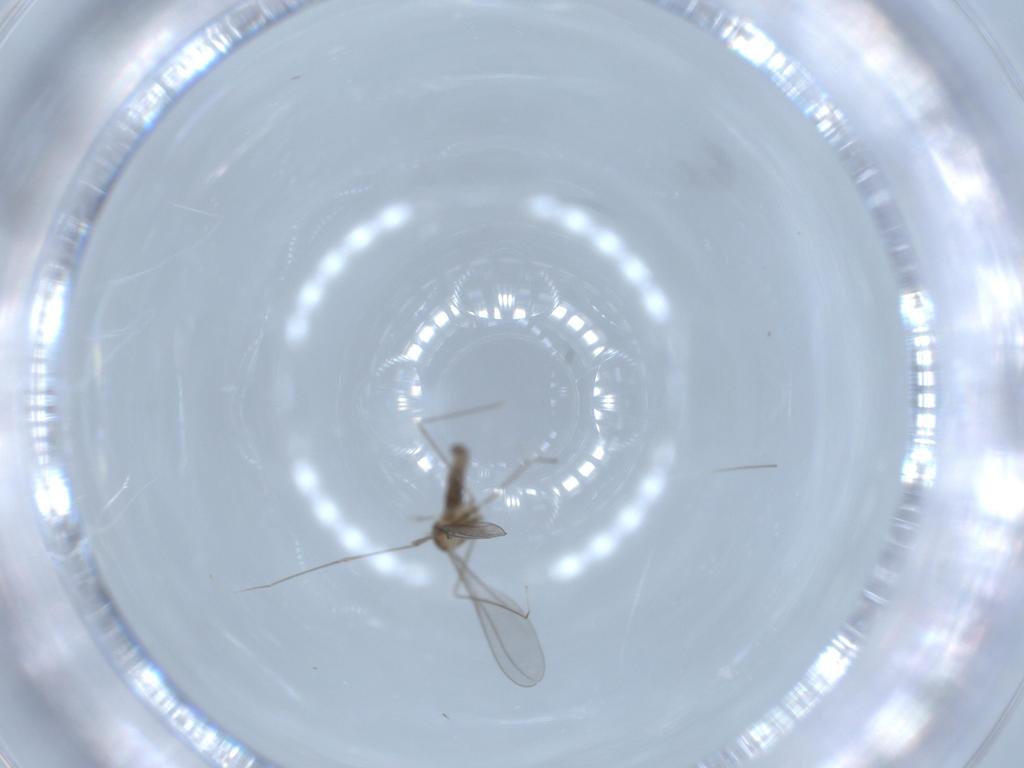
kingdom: Animalia
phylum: Arthropoda
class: Insecta
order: Diptera
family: Cecidomyiidae
